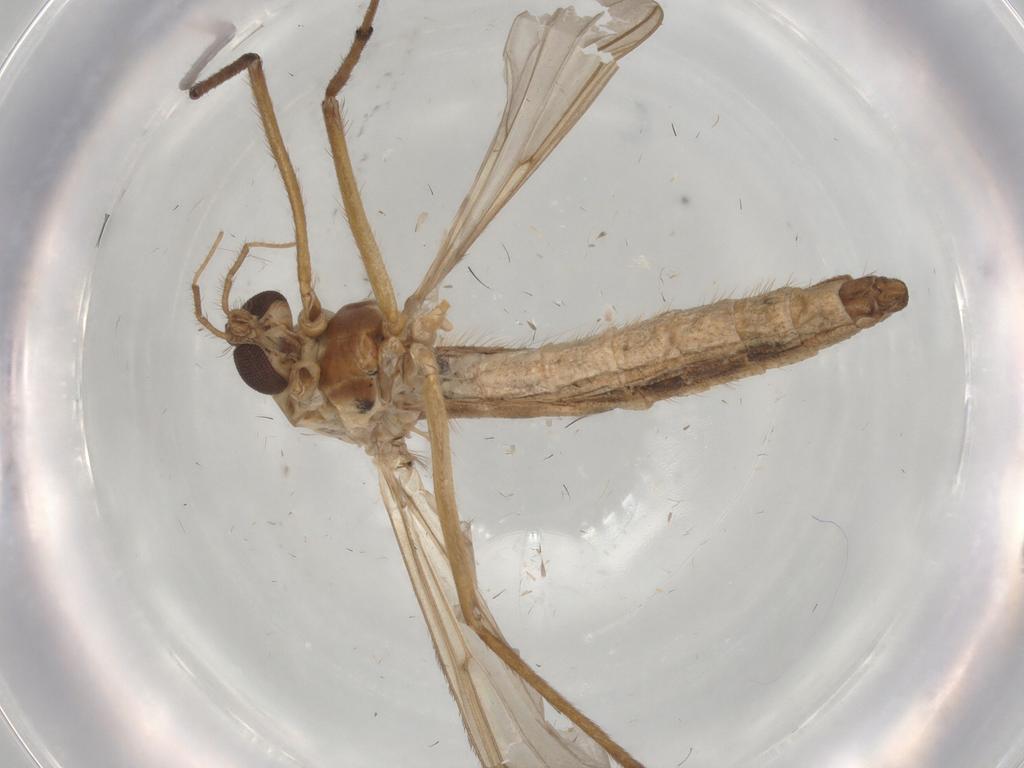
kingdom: Animalia
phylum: Arthropoda
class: Insecta
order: Diptera
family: Chironomidae
